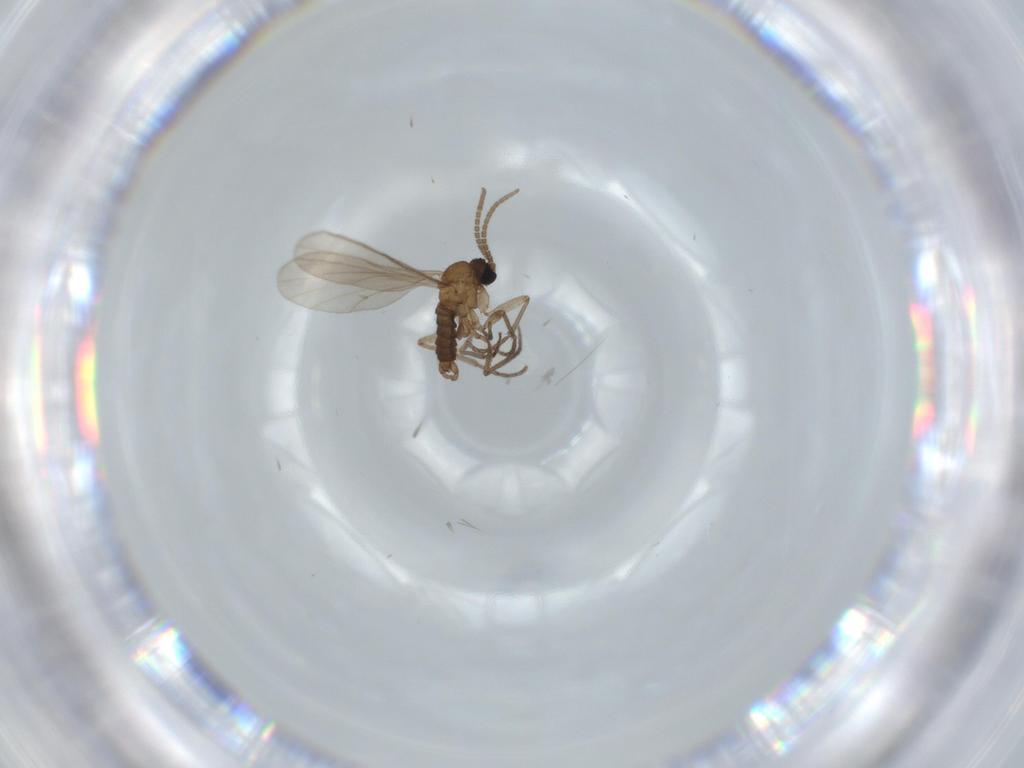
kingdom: Animalia
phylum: Arthropoda
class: Insecta
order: Diptera
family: Sciaridae
